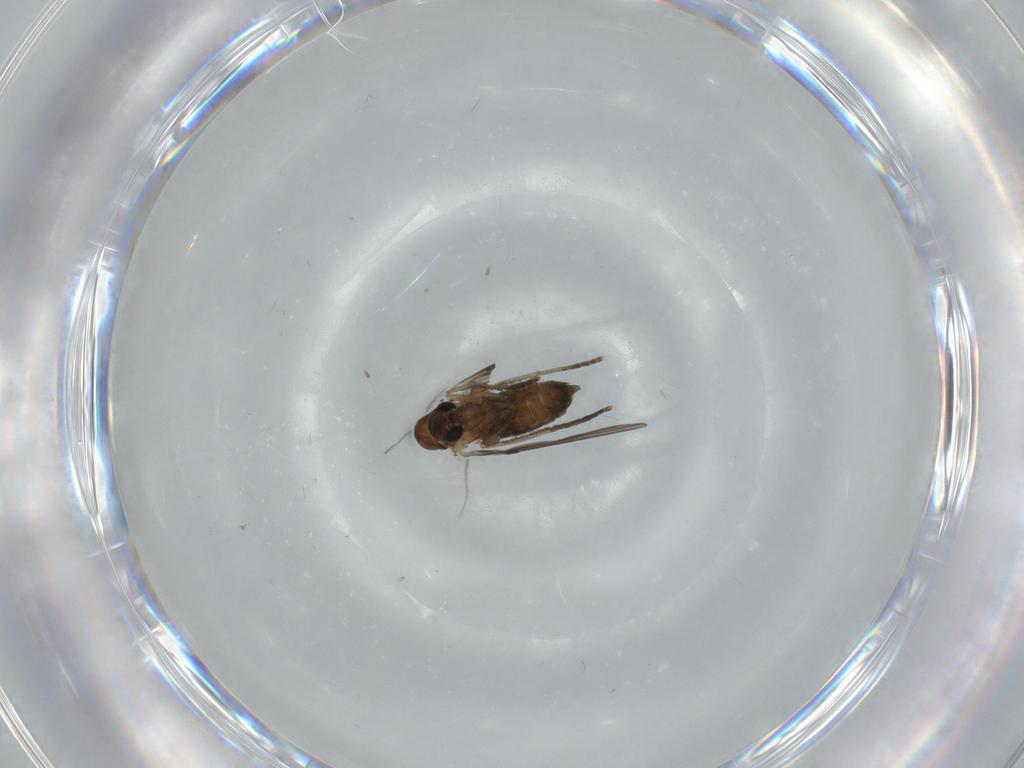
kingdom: Animalia
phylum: Arthropoda
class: Insecta
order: Diptera
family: Psychodidae
